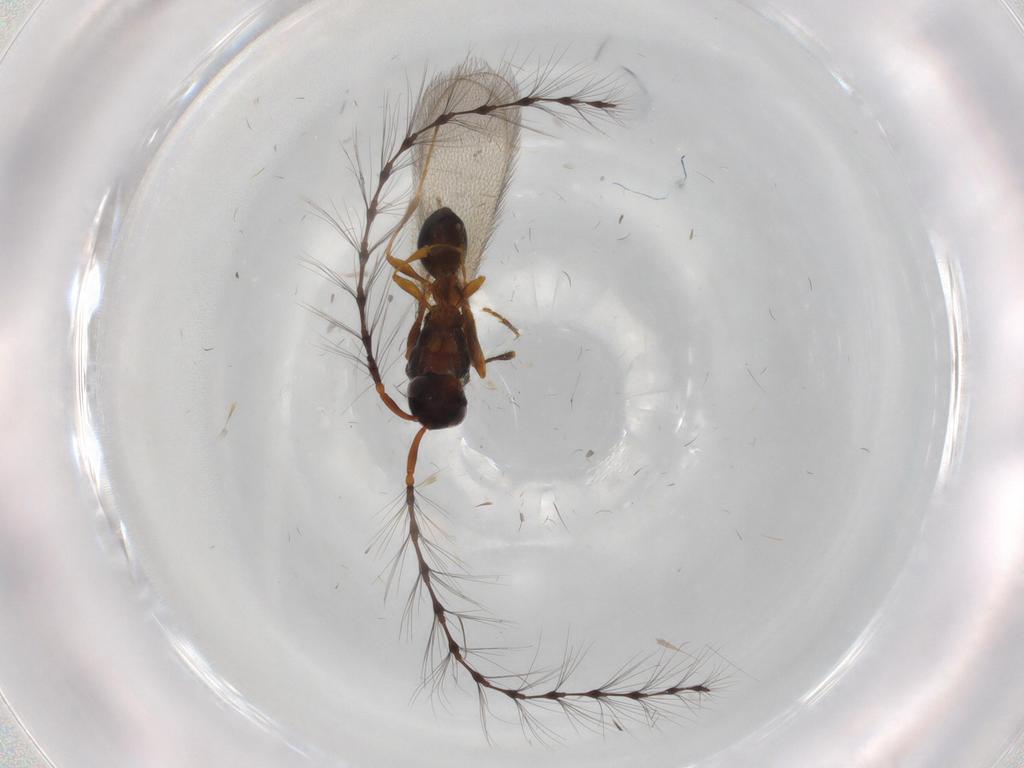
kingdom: Animalia
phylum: Arthropoda
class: Insecta
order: Hymenoptera
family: Diapriidae
